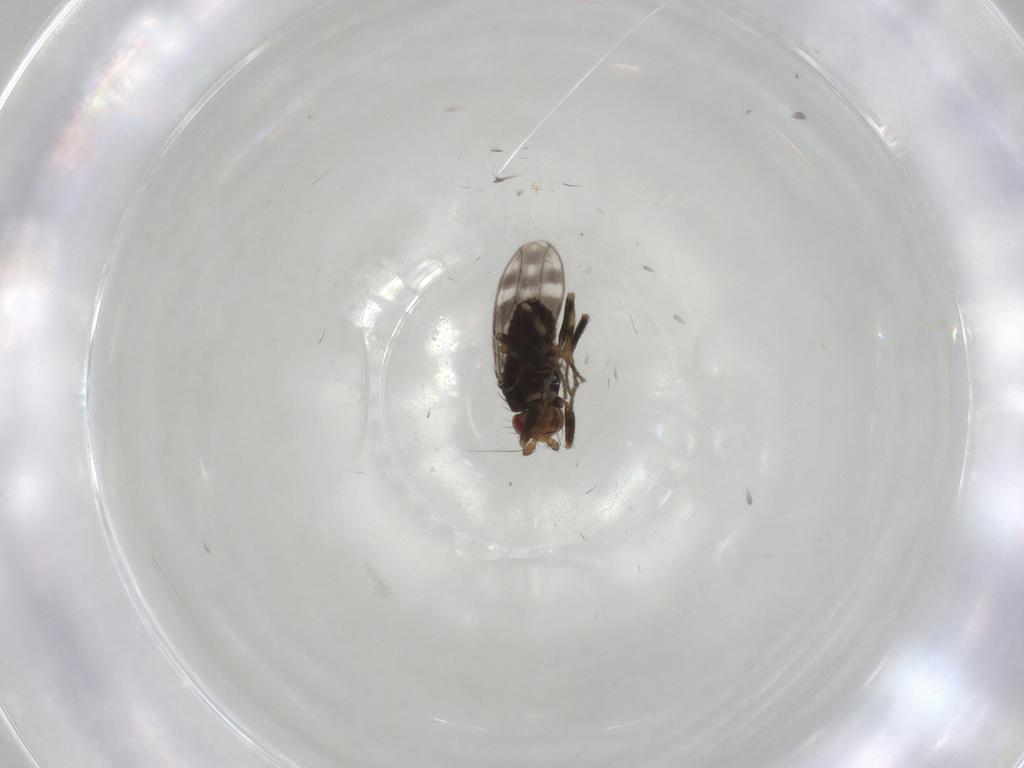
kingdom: Animalia
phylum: Arthropoda
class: Insecta
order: Diptera
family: Sphaeroceridae
